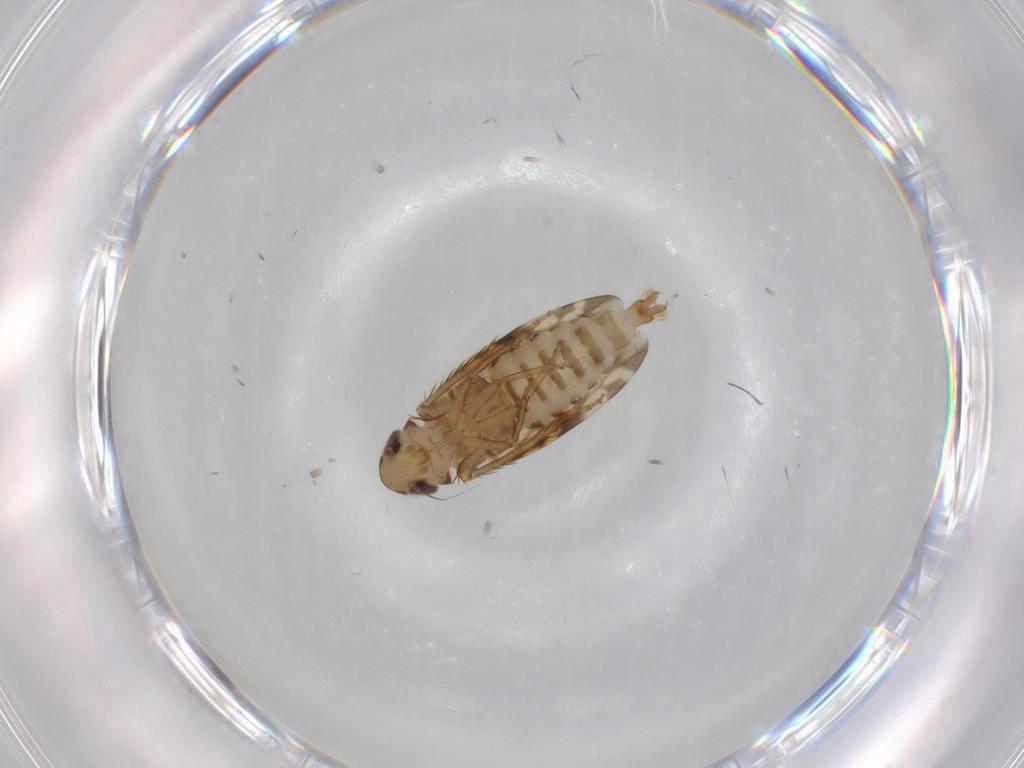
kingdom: Animalia
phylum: Arthropoda
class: Insecta
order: Hemiptera
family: Cicadellidae
